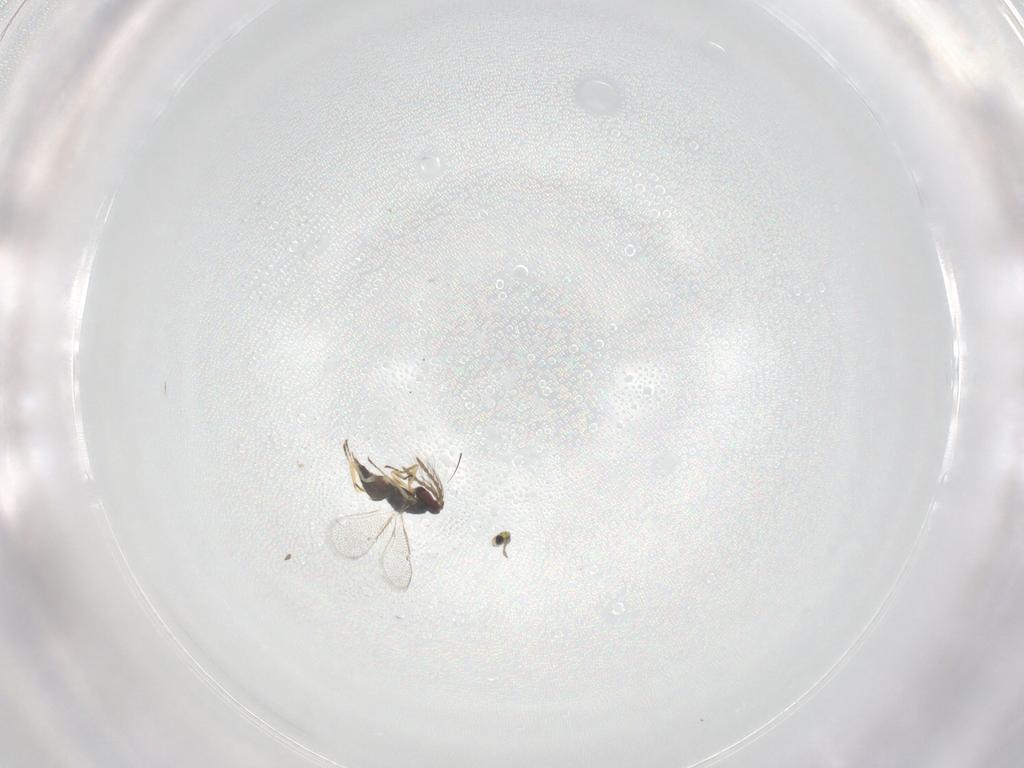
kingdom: Animalia
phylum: Arthropoda
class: Insecta
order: Hymenoptera
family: Eulophidae
